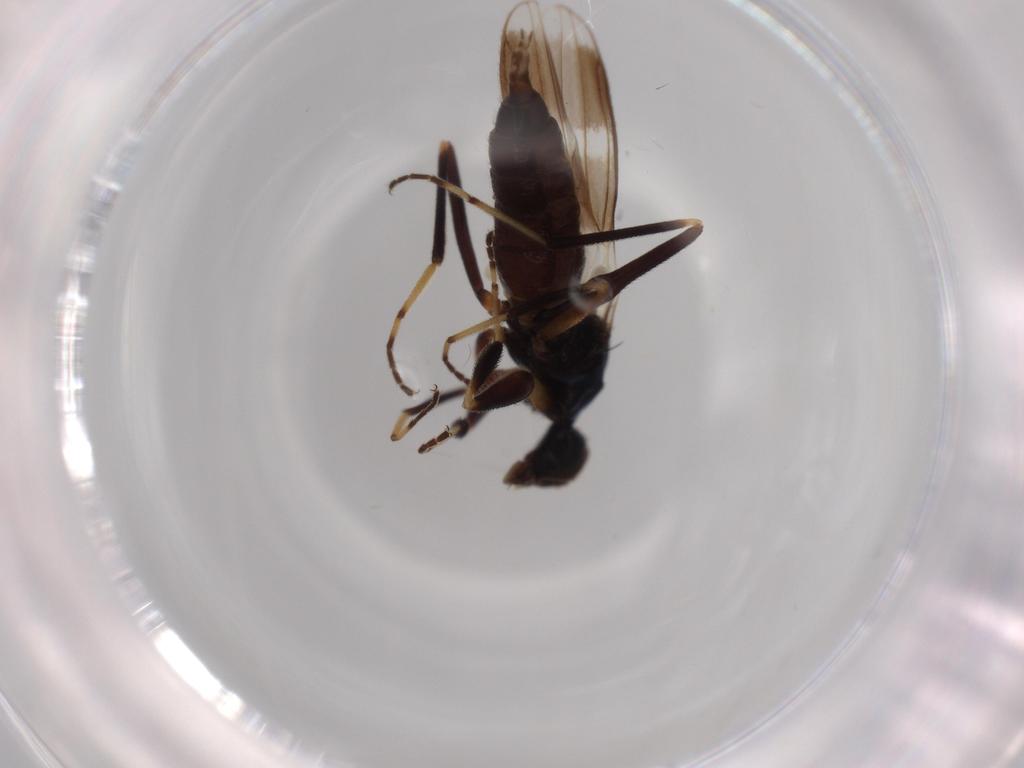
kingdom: Animalia
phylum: Arthropoda
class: Insecta
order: Diptera
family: Hybotidae
